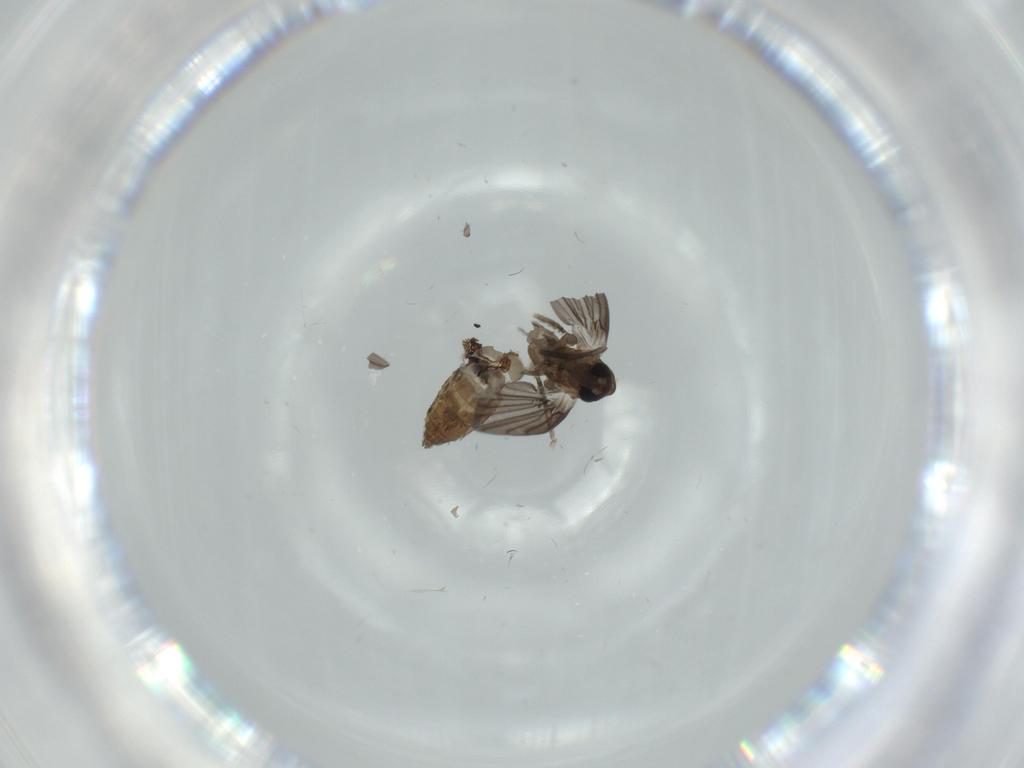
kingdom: Animalia
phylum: Arthropoda
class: Insecta
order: Diptera
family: Psychodidae
